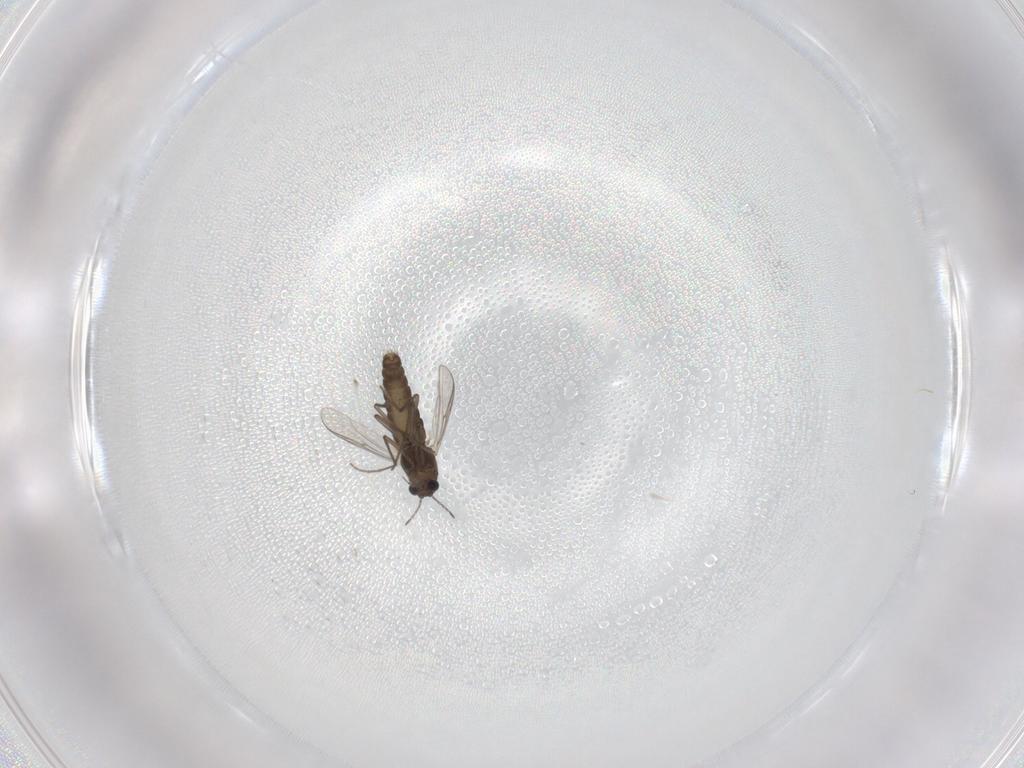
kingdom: Animalia
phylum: Arthropoda
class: Insecta
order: Diptera
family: Chironomidae
